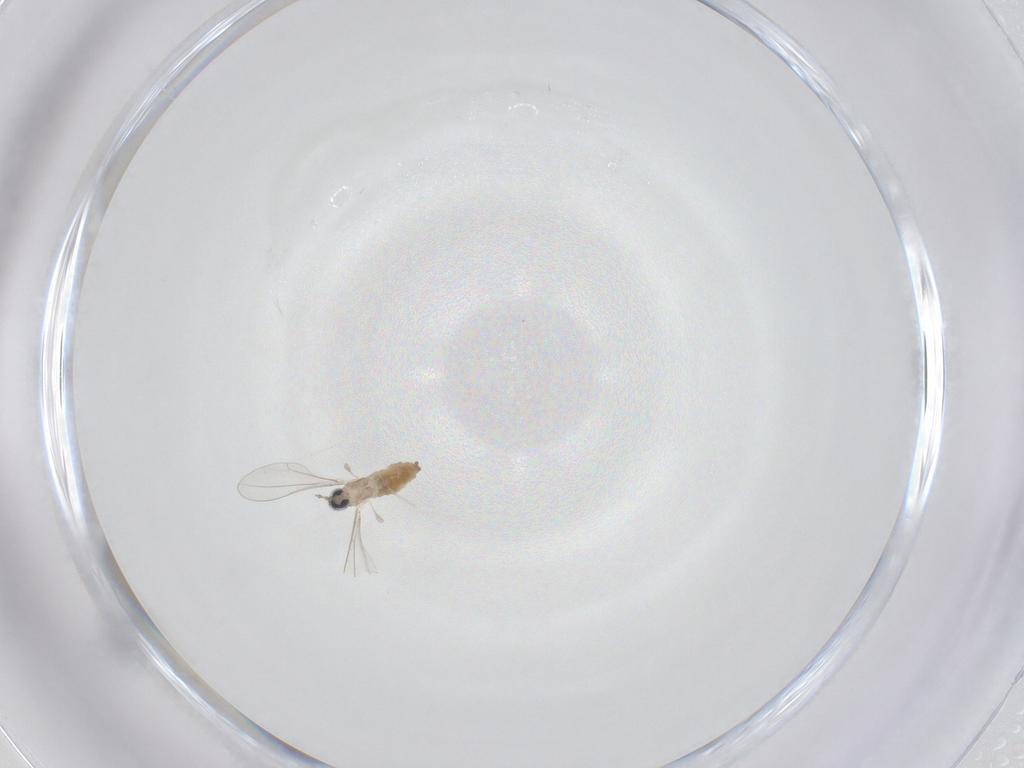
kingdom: Animalia
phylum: Arthropoda
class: Insecta
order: Diptera
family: Cecidomyiidae
